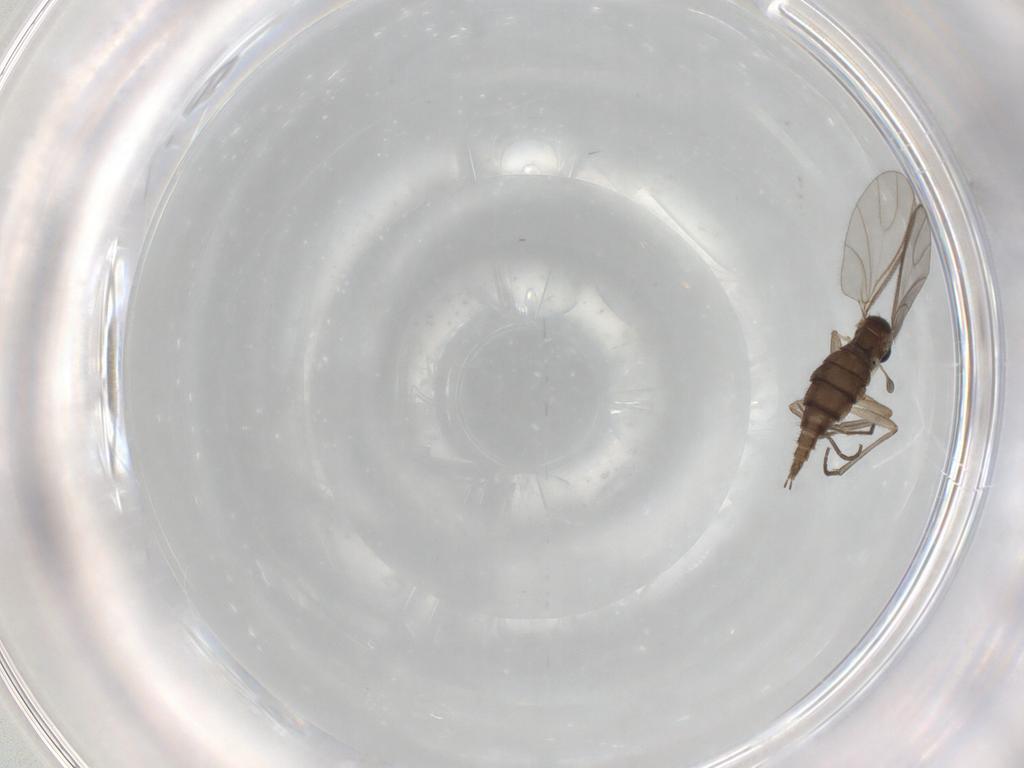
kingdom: Animalia
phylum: Arthropoda
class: Insecta
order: Diptera
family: Sciaridae
